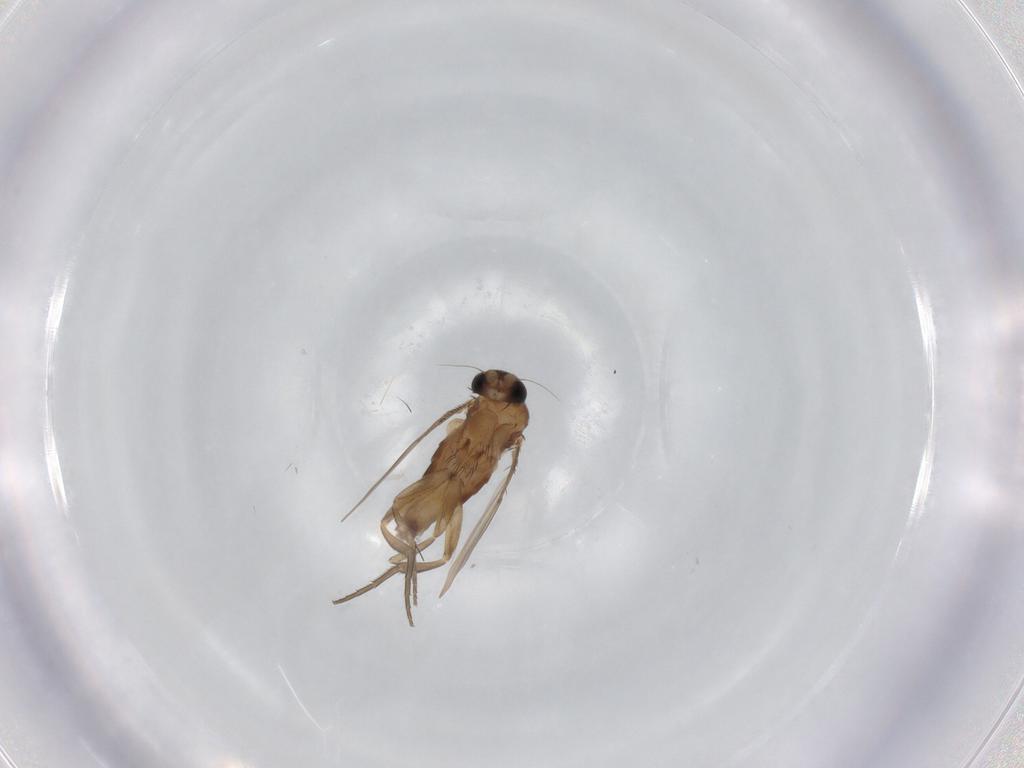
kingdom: Animalia
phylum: Arthropoda
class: Insecta
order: Diptera
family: Phoridae
